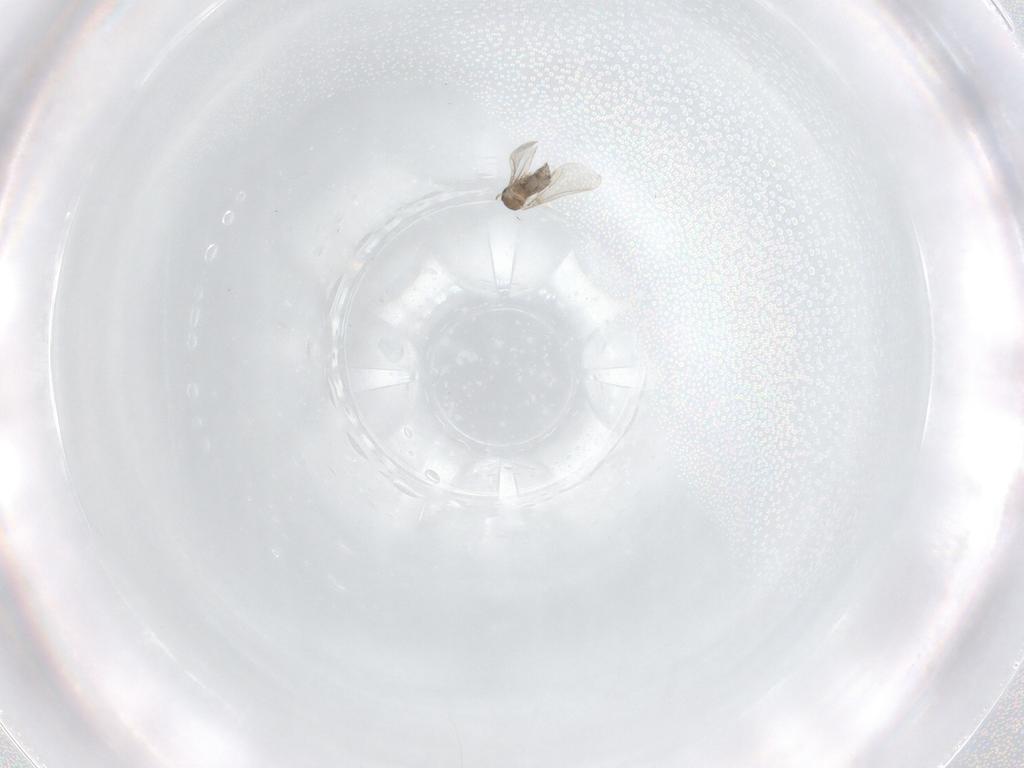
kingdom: Animalia
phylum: Arthropoda
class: Insecta
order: Diptera
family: Cecidomyiidae
